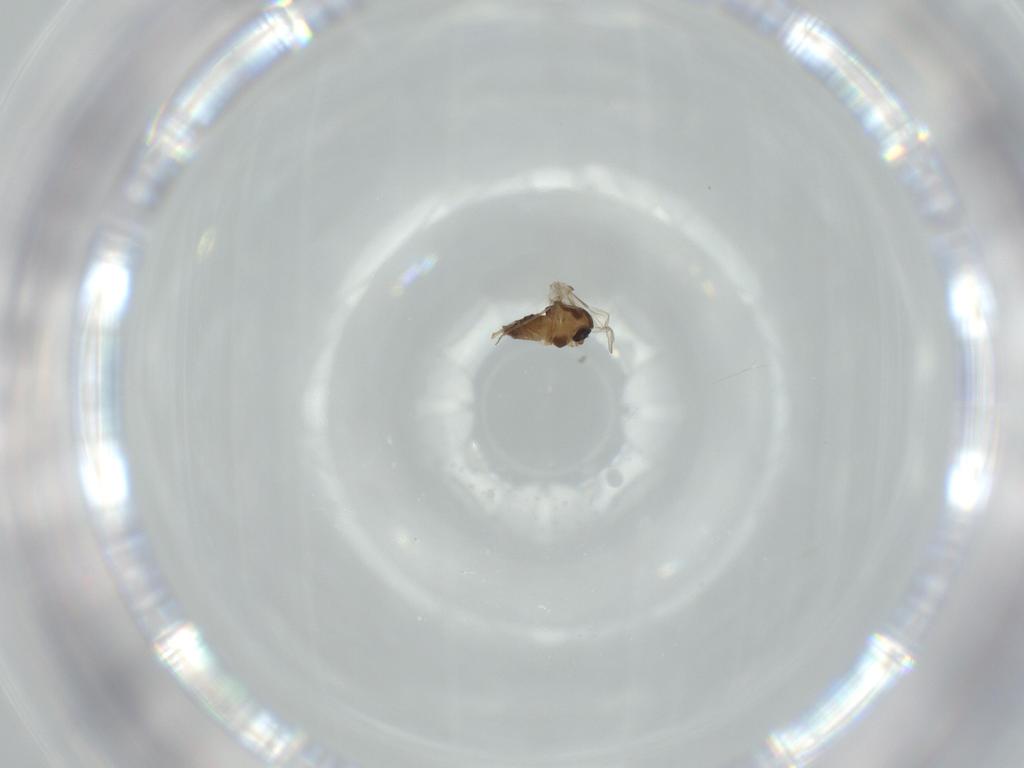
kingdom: Animalia
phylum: Arthropoda
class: Insecta
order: Diptera
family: Chironomidae
